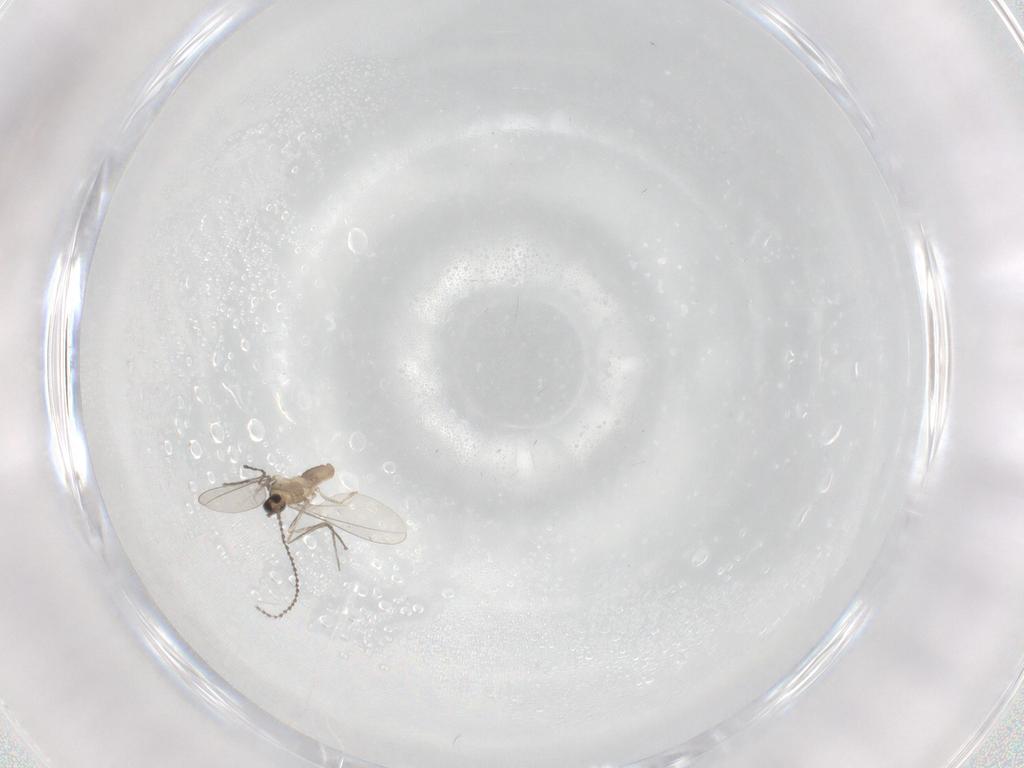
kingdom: Animalia
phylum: Arthropoda
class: Insecta
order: Diptera
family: Cecidomyiidae
